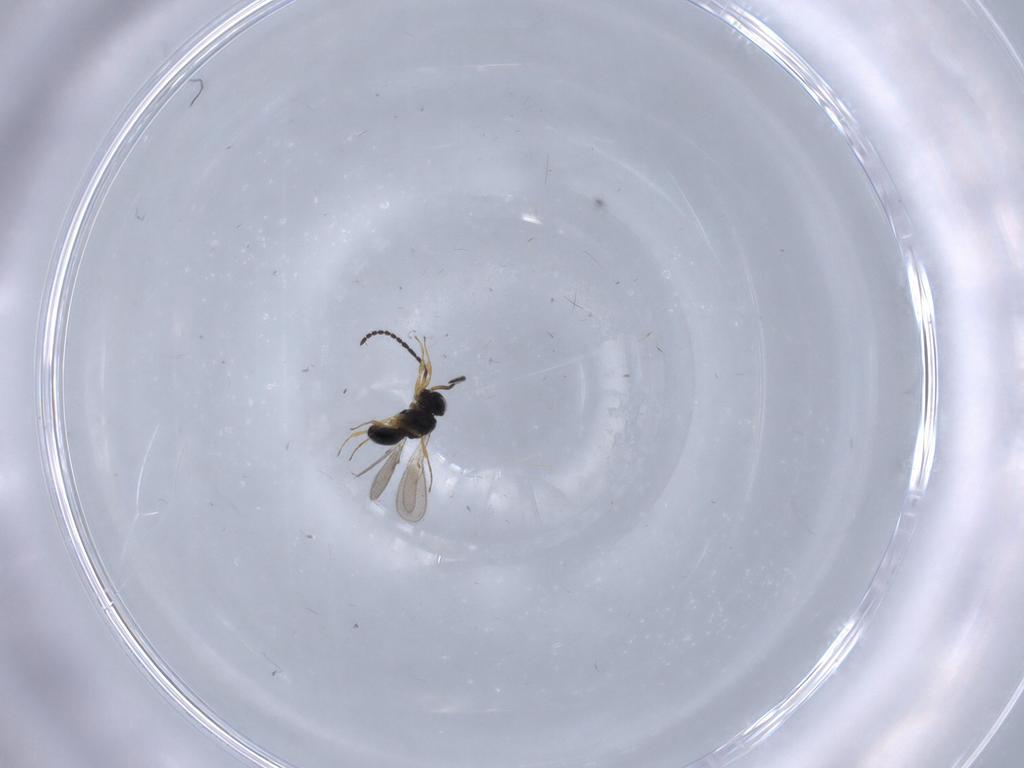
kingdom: Animalia
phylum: Arthropoda
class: Insecta
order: Hymenoptera
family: Scelionidae
